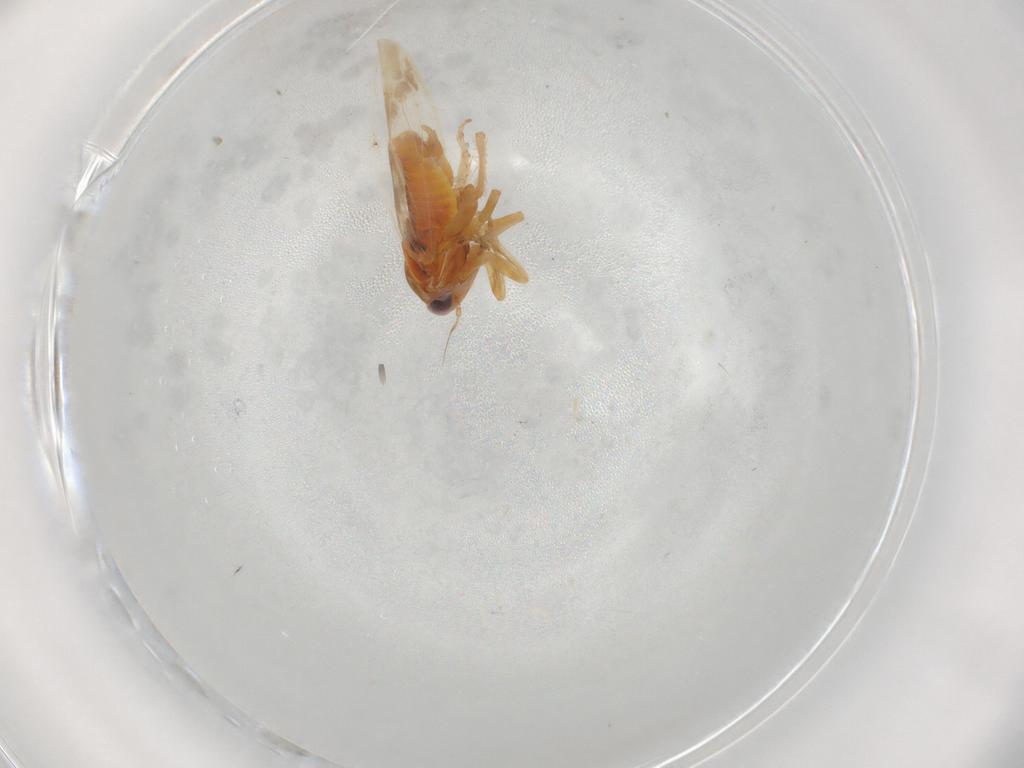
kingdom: Animalia
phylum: Arthropoda
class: Insecta
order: Hemiptera
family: Cicadellidae
